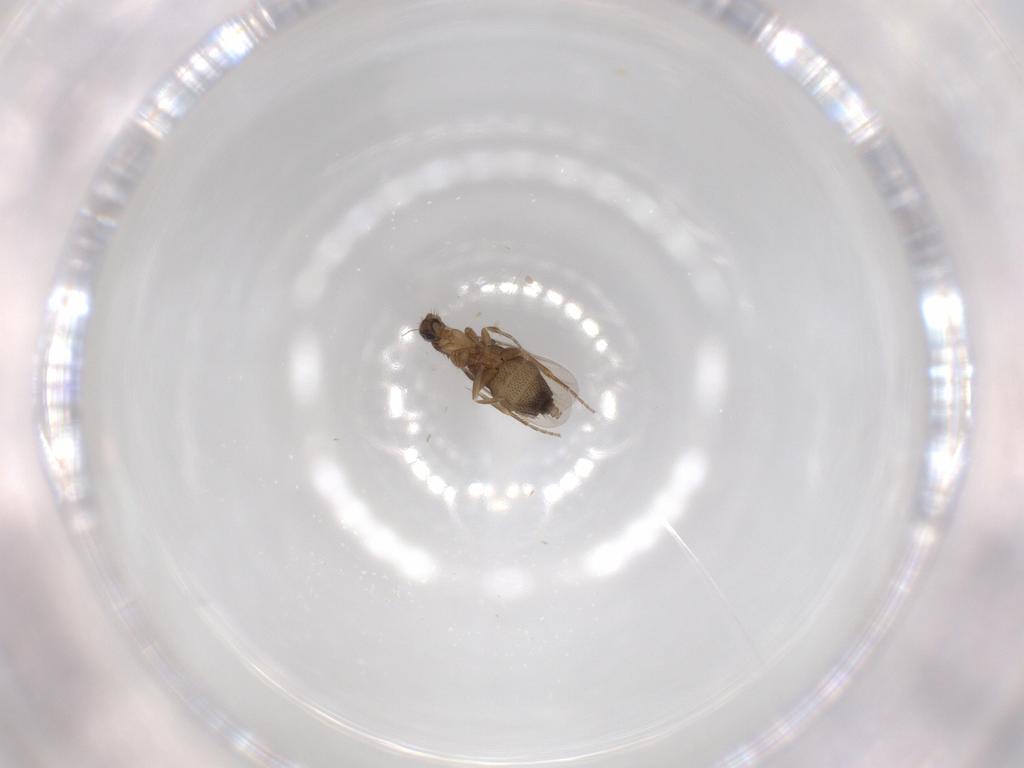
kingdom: Animalia
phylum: Arthropoda
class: Insecta
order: Diptera
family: Phoridae
